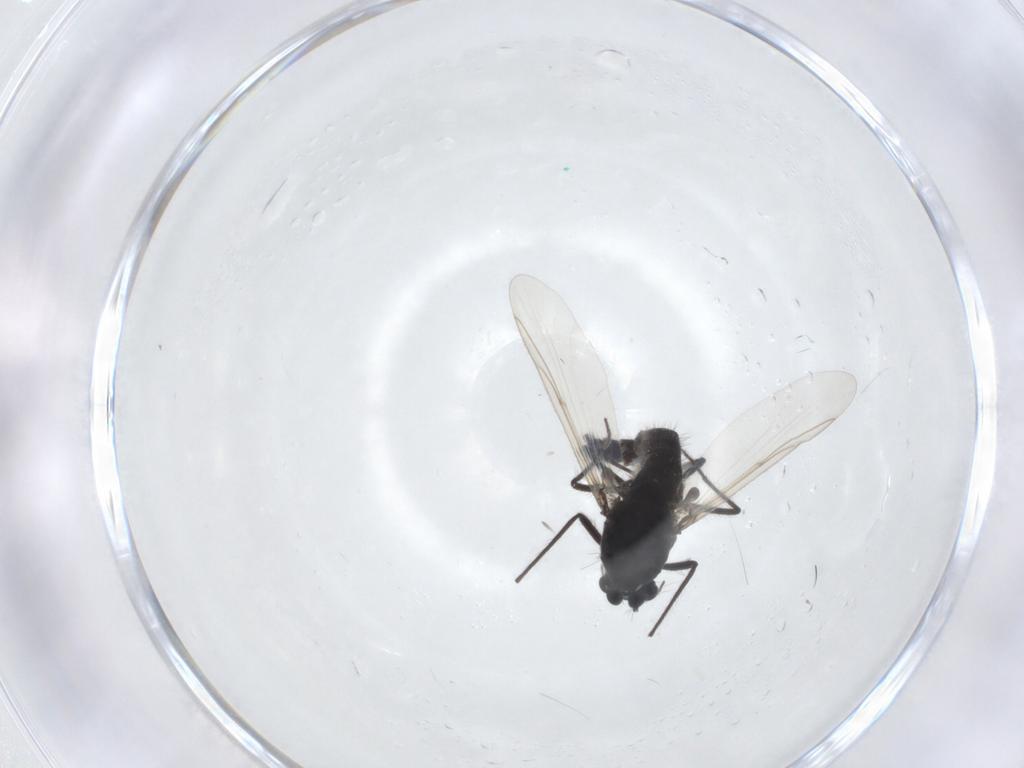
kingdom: Animalia
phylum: Arthropoda
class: Insecta
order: Diptera
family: Chironomidae
